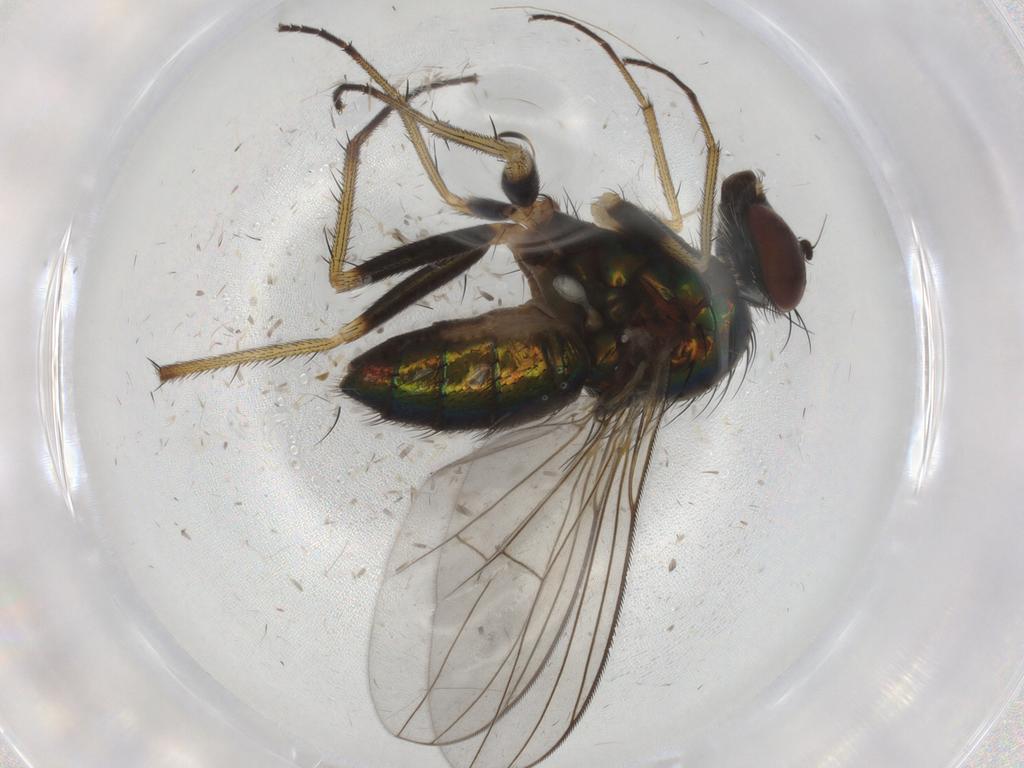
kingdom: Animalia
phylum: Arthropoda
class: Insecta
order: Diptera
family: Dolichopodidae
